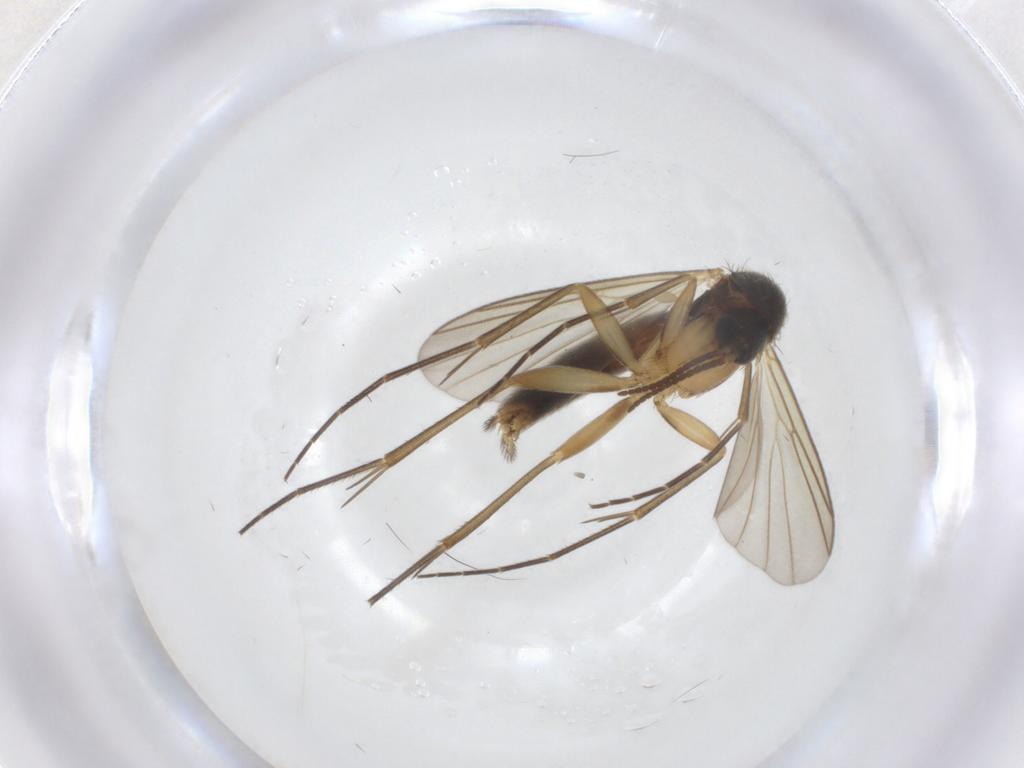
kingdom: Animalia
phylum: Arthropoda
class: Insecta
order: Diptera
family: Mycetophilidae
